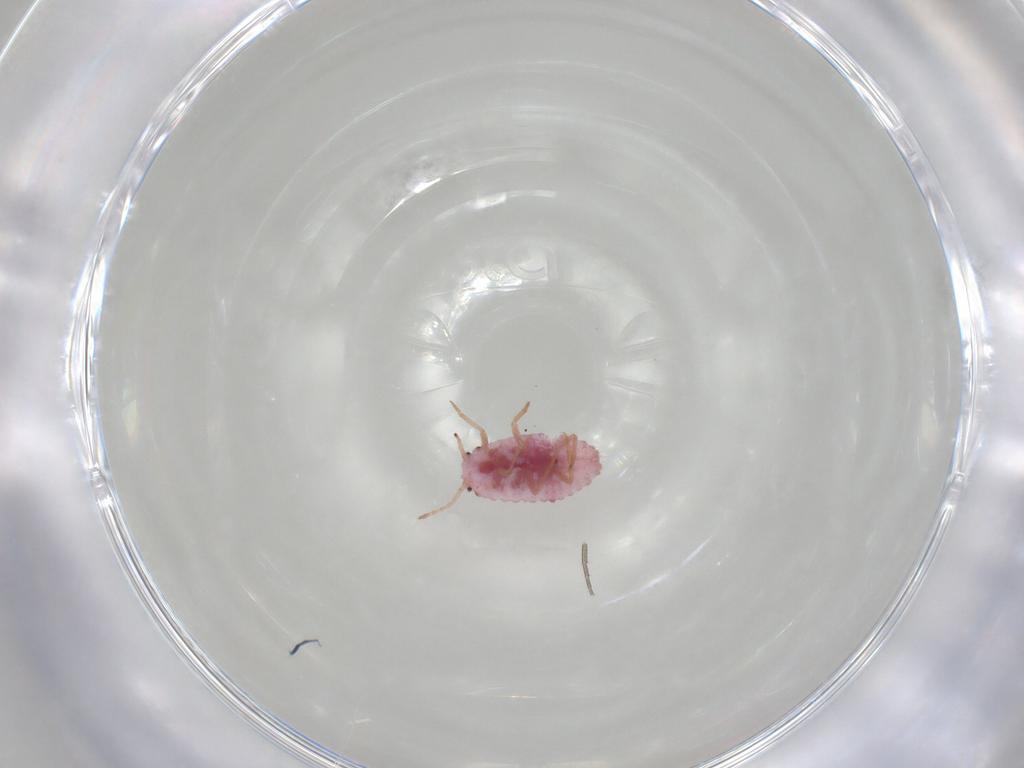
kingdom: Animalia
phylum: Arthropoda
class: Insecta
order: Hemiptera
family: Coccoidea_incertae_sedis
